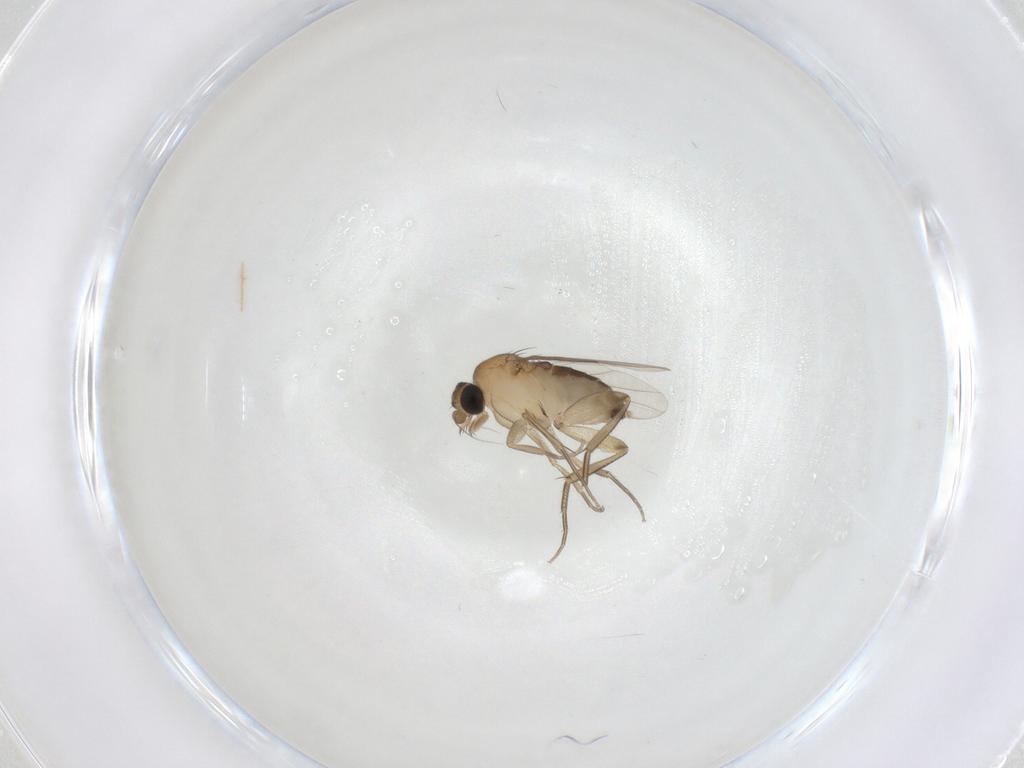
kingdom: Animalia
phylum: Arthropoda
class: Insecta
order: Diptera
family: Phoridae
